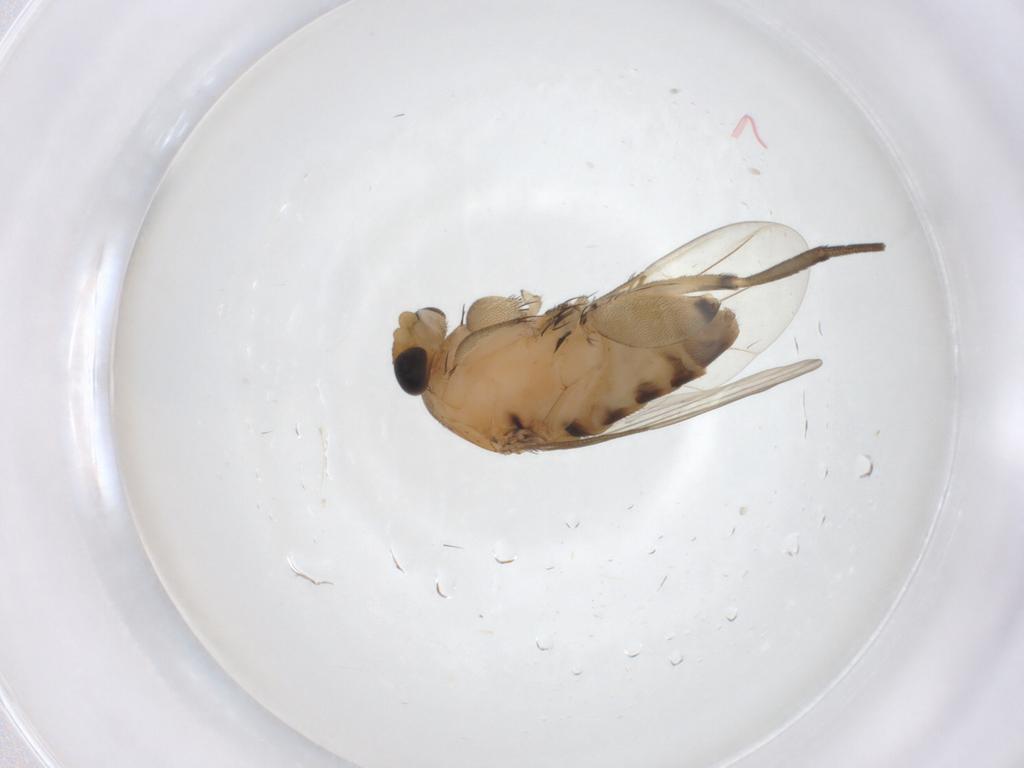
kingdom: Animalia
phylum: Arthropoda
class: Insecta
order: Diptera
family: Phoridae
